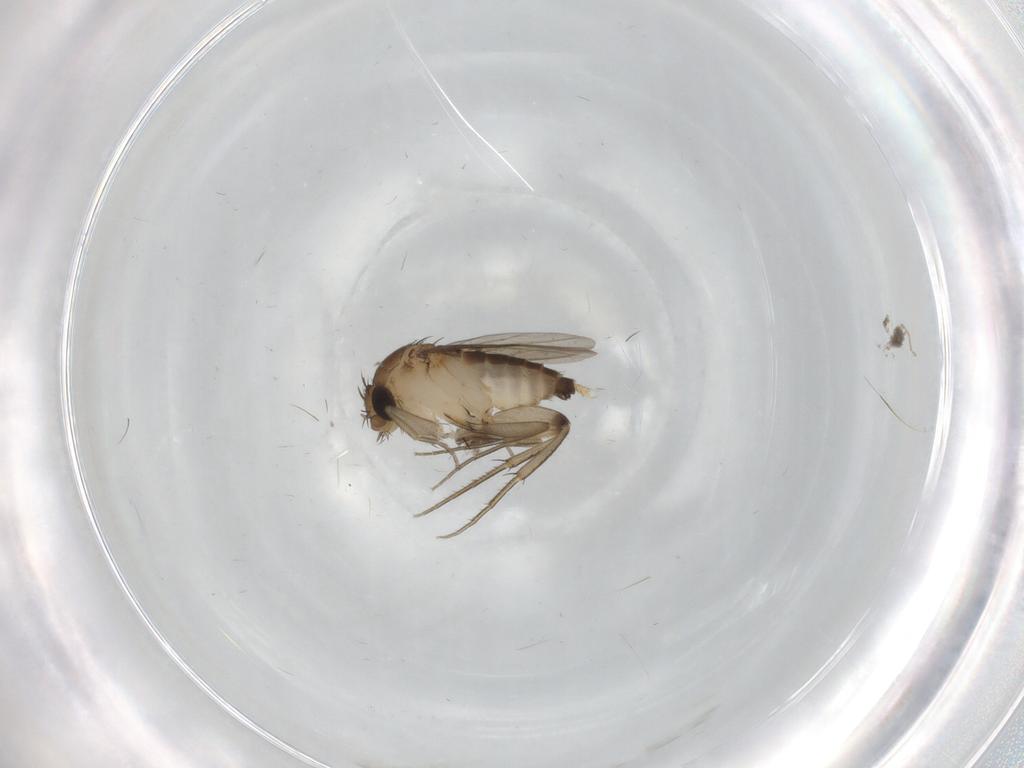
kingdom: Animalia
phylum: Arthropoda
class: Insecta
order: Diptera
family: Phoridae
